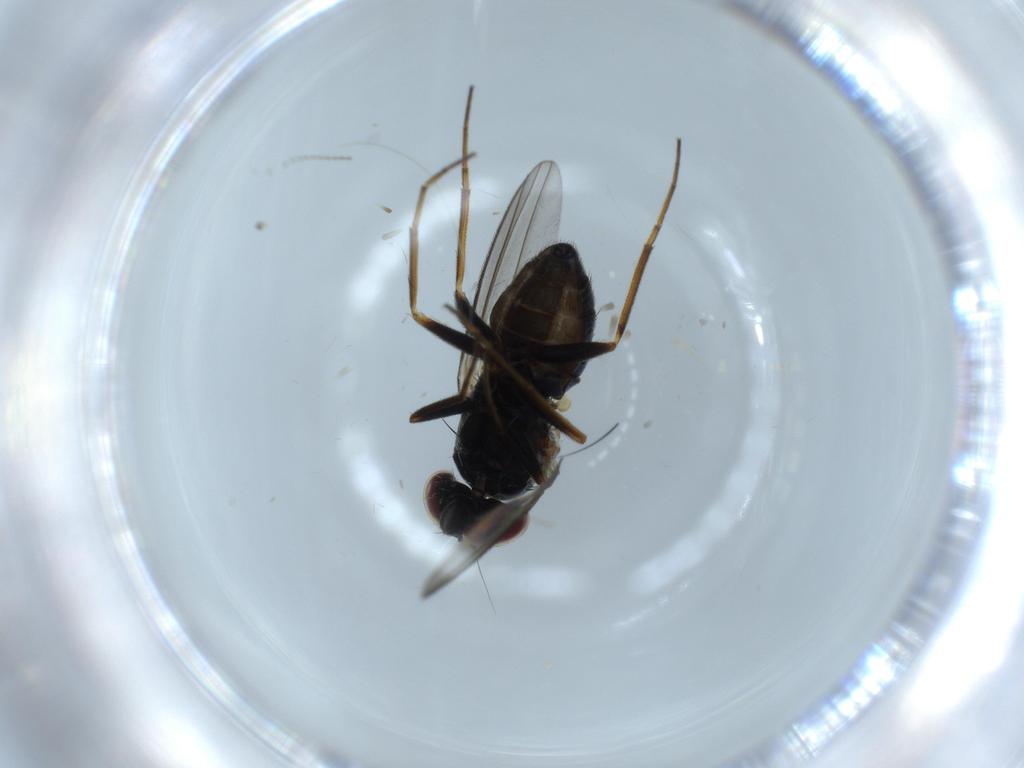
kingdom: Animalia
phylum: Arthropoda
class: Insecta
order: Diptera
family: Dolichopodidae
